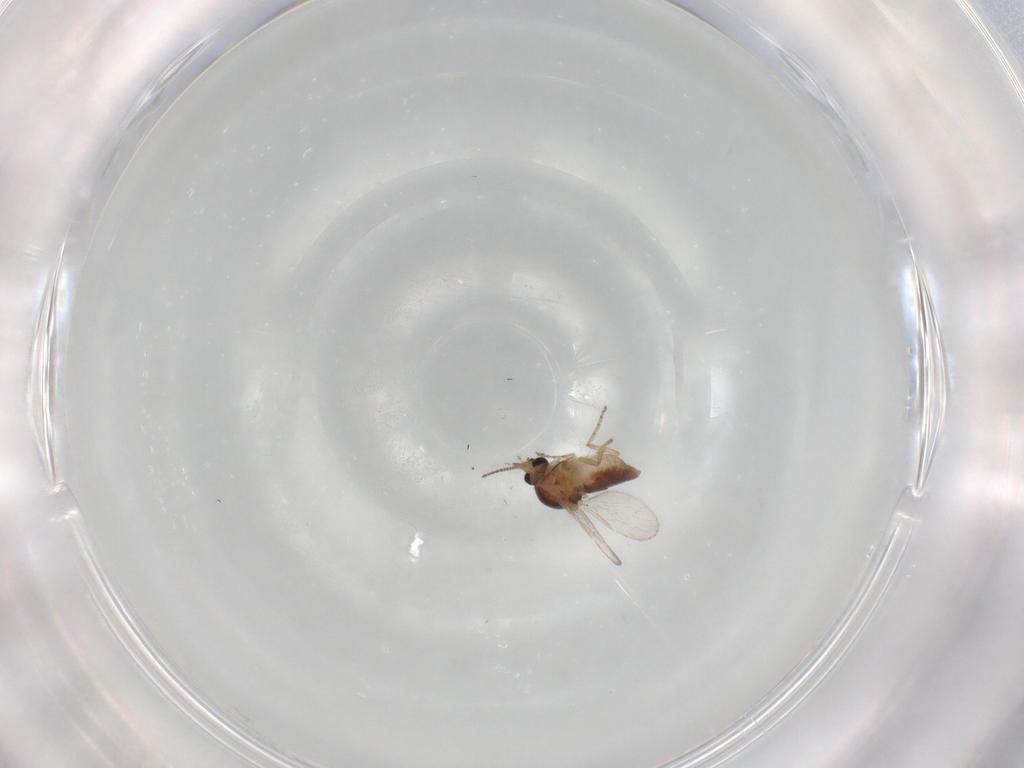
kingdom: Animalia
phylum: Arthropoda
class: Insecta
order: Diptera
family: Ceratopogonidae
